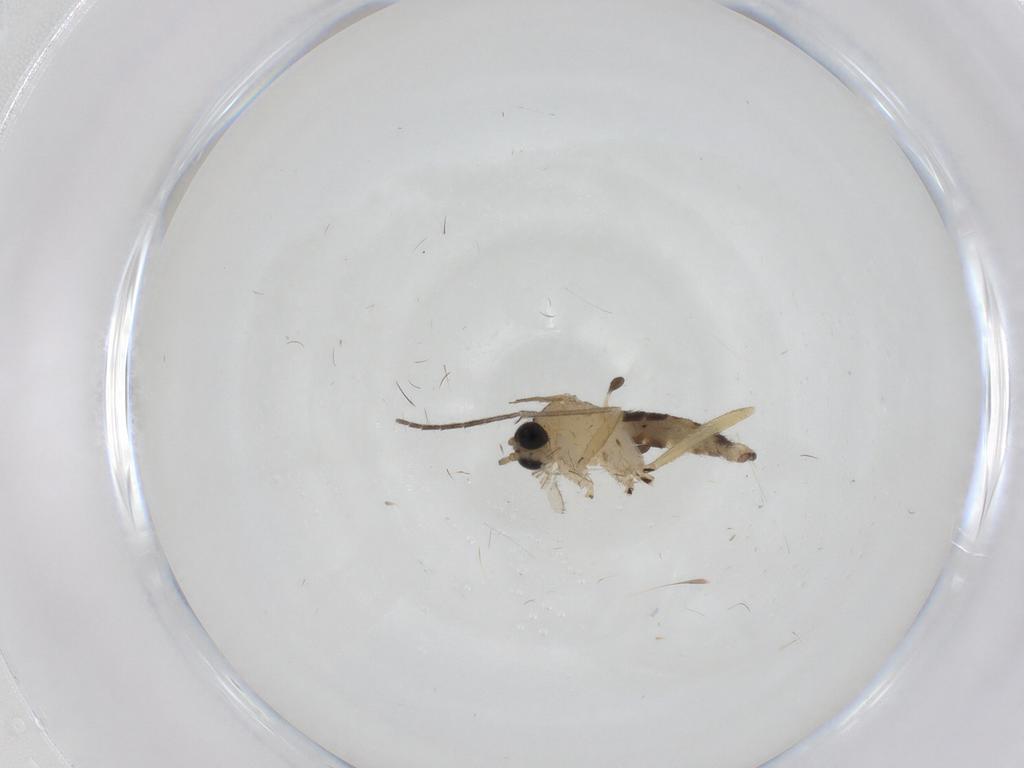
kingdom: Animalia
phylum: Arthropoda
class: Insecta
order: Diptera
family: Sciaridae
